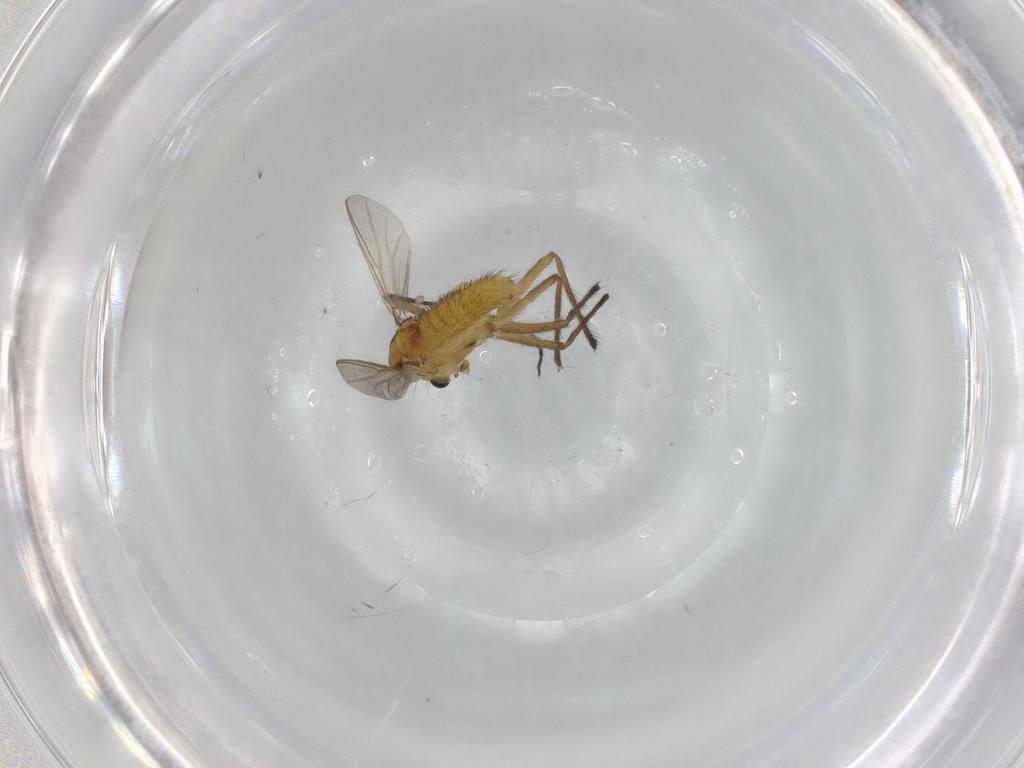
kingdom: Animalia
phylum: Arthropoda
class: Insecta
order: Diptera
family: Chironomidae
